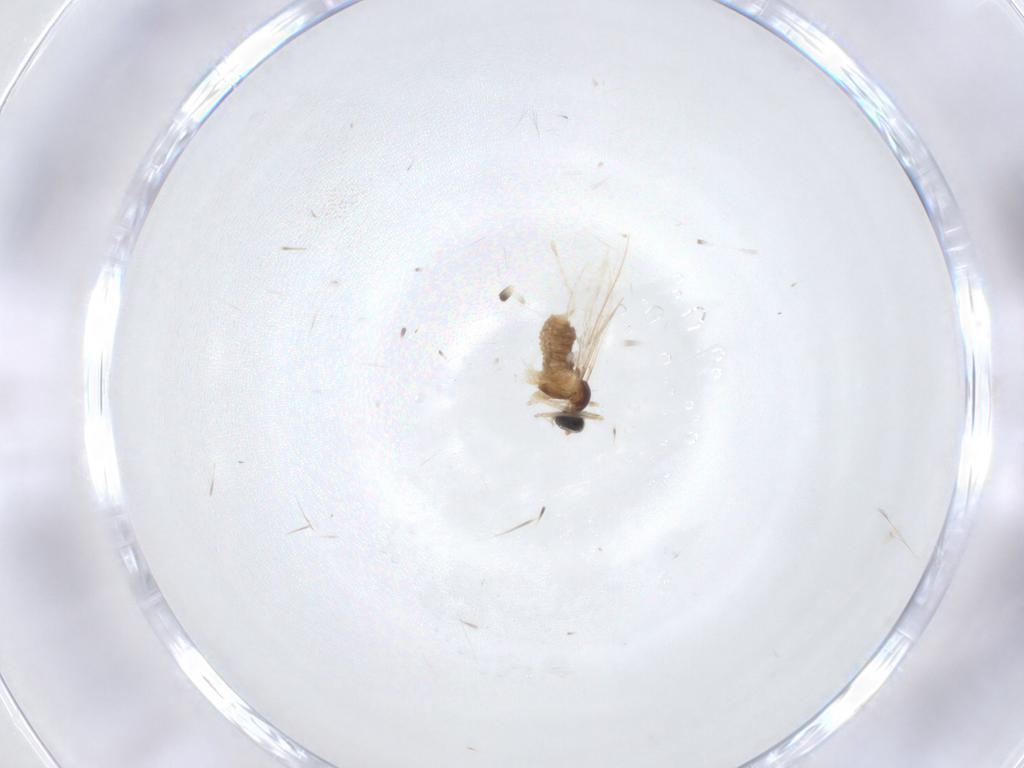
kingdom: Animalia
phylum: Arthropoda
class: Insecta
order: Diptera
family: Cecidomyiidae
